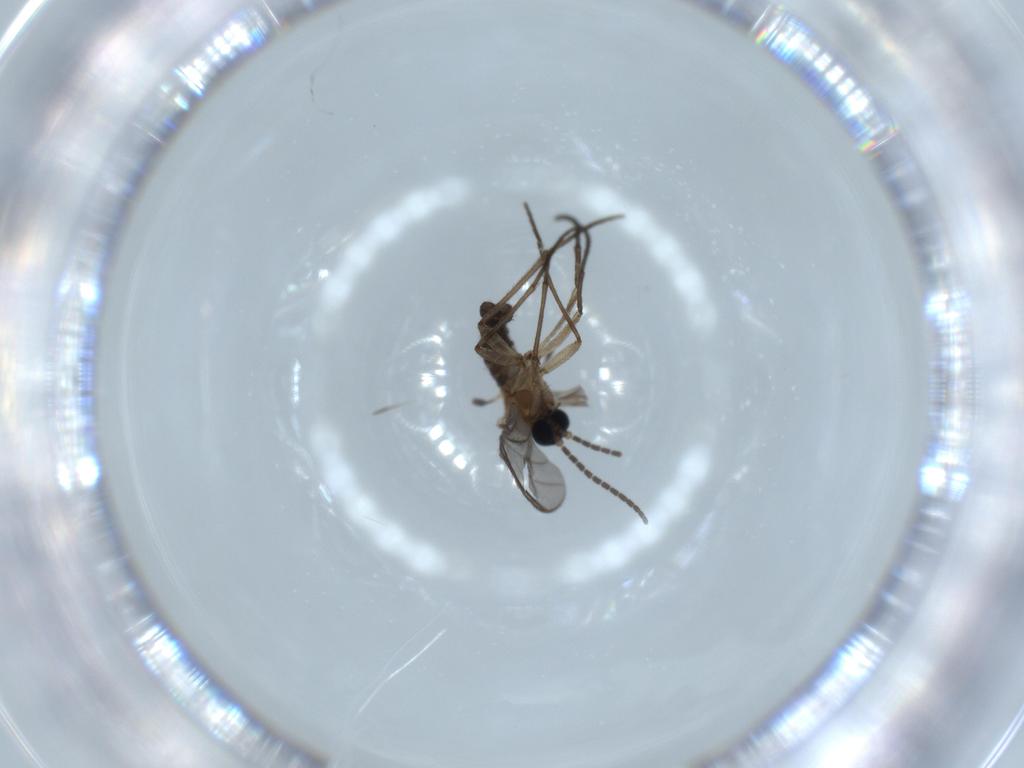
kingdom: Animalia
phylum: Arthropoda
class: Insecta
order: Diptera
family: Sciaridae
